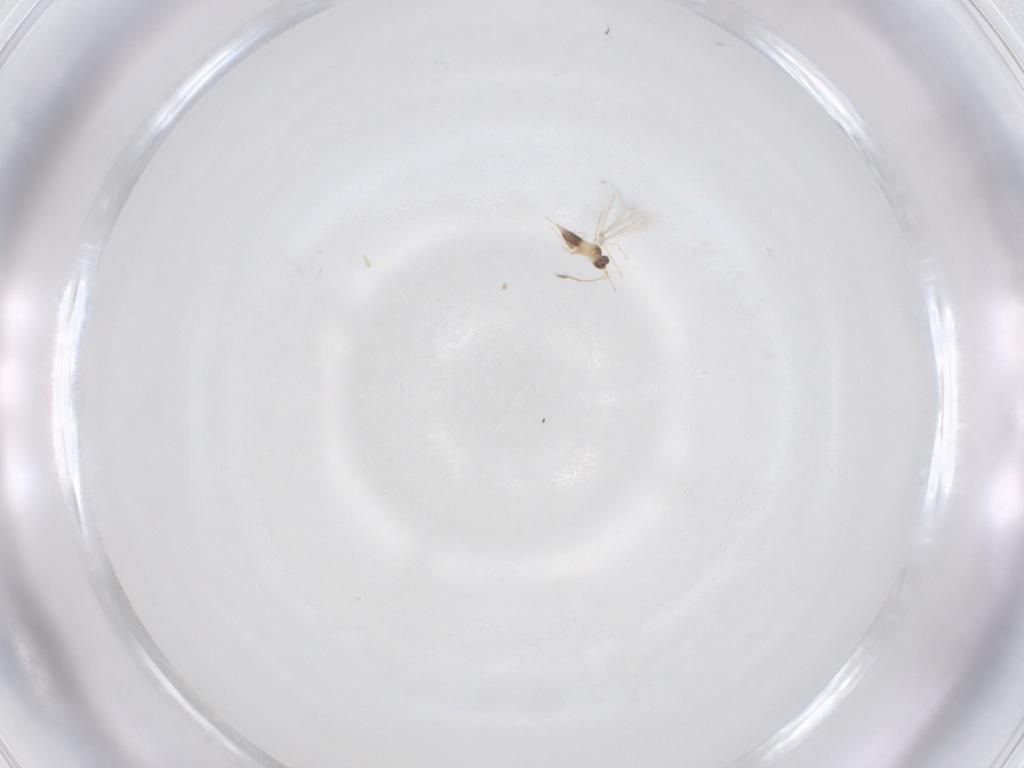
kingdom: Animalia
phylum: Arthropoda
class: Insecta
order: Hymenoptera
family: Mymaridae
